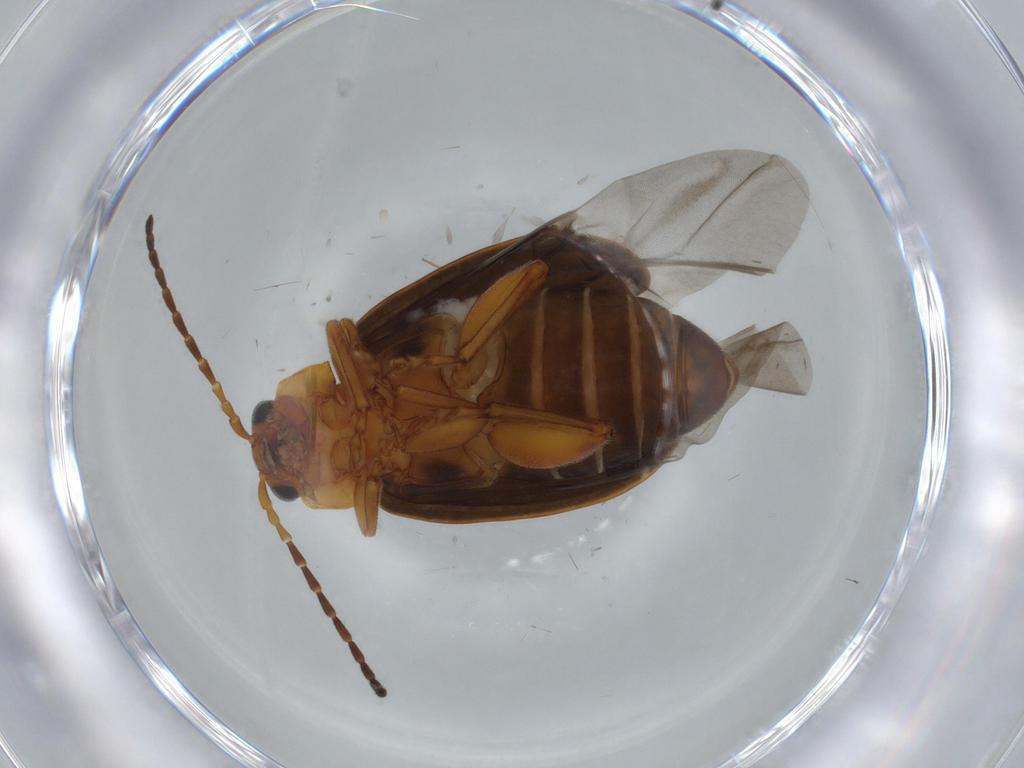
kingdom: Animalia
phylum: Arthropoda
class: Insecta
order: Coleoptera
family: Chrysomelidae
